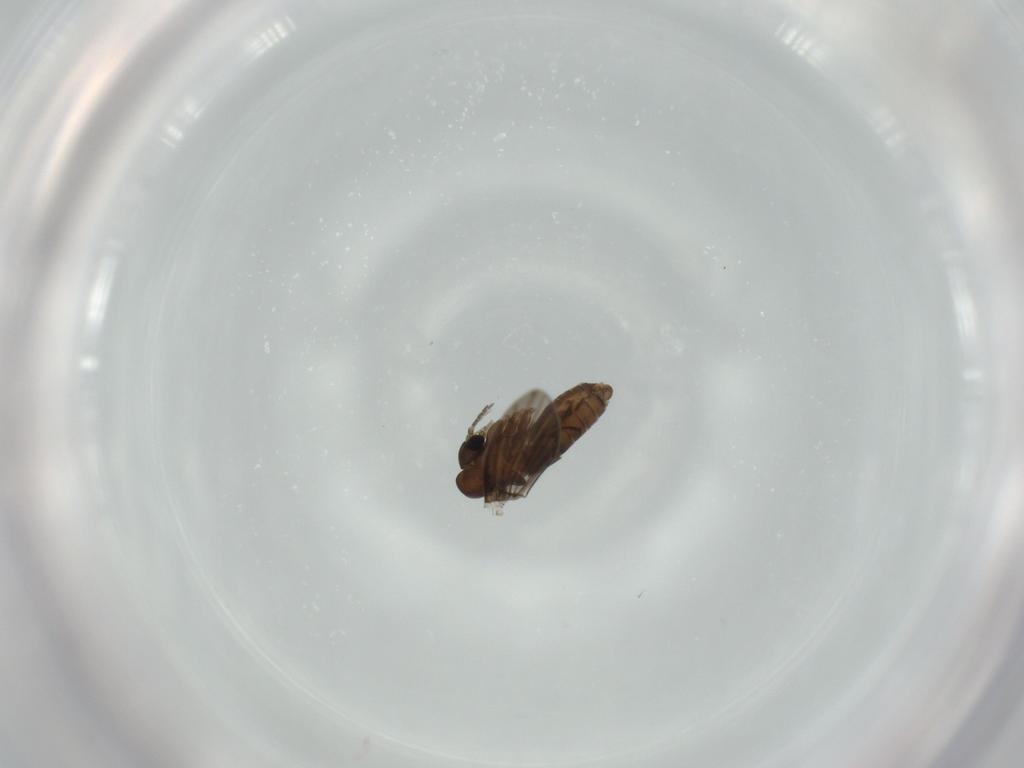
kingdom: Animalia
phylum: Arthropoda
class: Insecta
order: Diptera
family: Psychodidae
